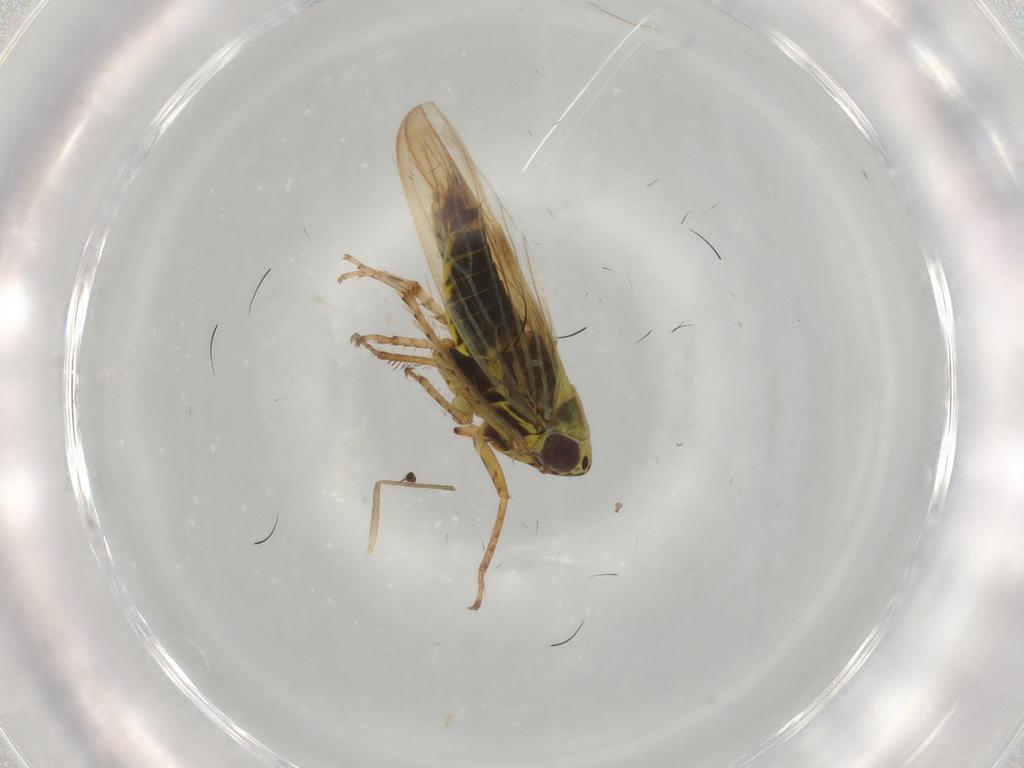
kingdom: Animalia
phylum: Arthropoda
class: Insecta
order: Hemiptera
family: Cicadellidae
